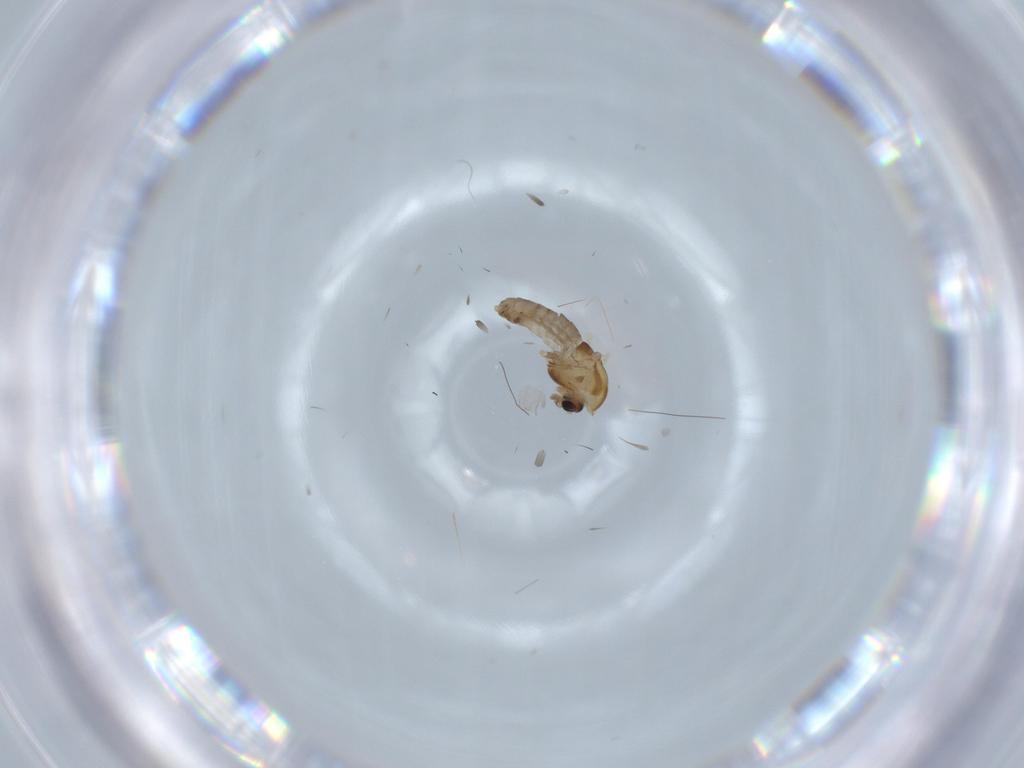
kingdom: Animalia
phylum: Arthropoda
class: Insecta
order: Diptera
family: Chironomidae
